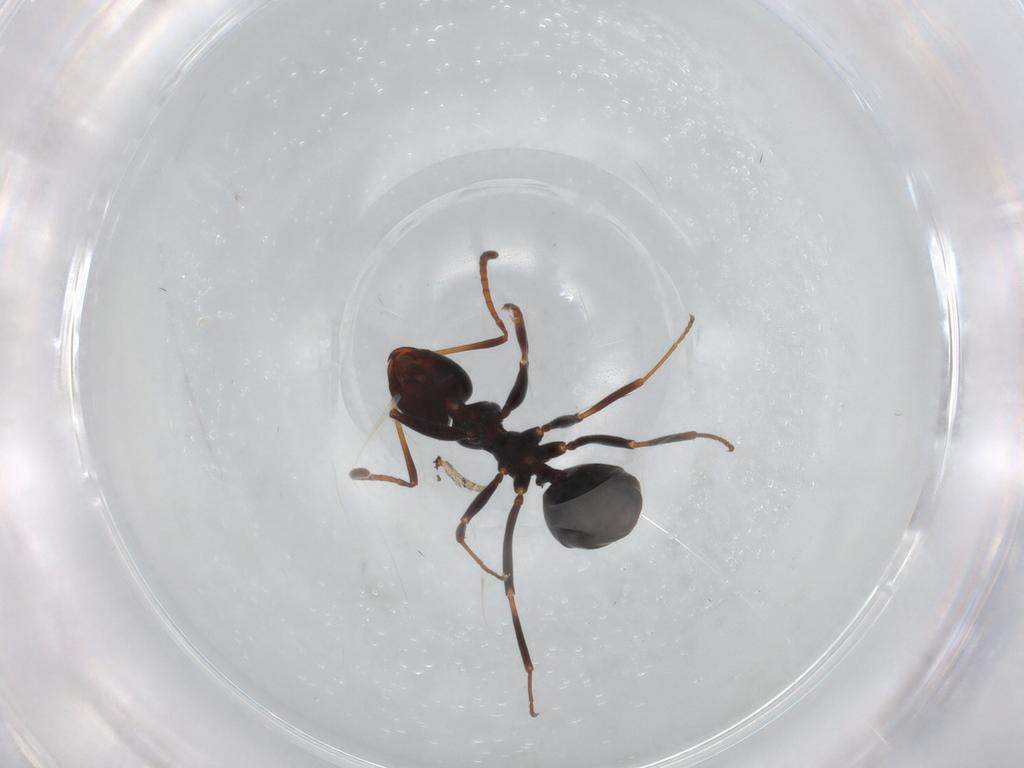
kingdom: Animalia
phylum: Arthropoda
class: Insecta
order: Hymenoptera
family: Formicidae
